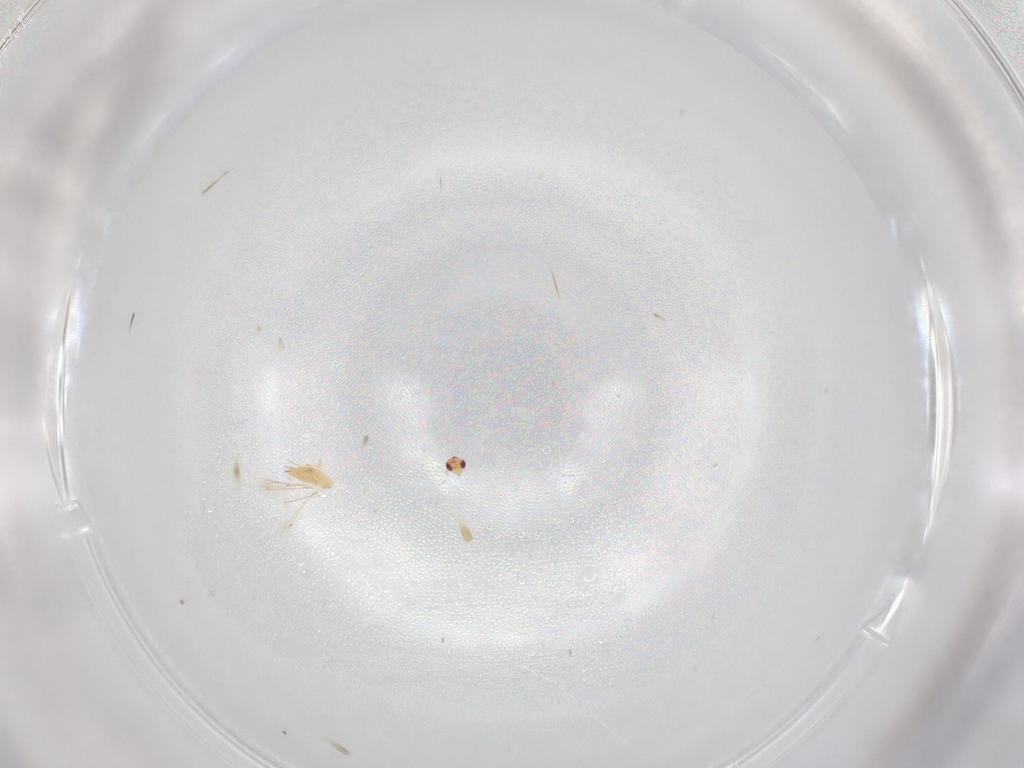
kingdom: Animalia
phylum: Arthropoda
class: Insecta
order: Hymenoptera
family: Mymaridae
